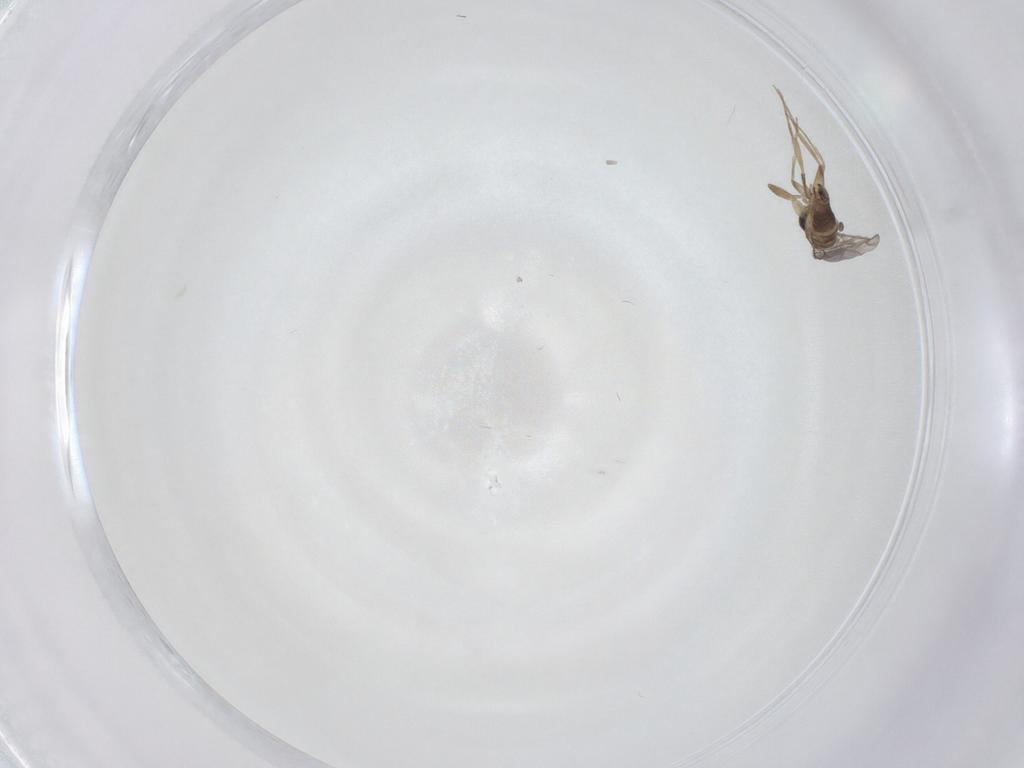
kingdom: Animalia
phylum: Arthropoda
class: Insecta
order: Diptera
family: Phoridae
